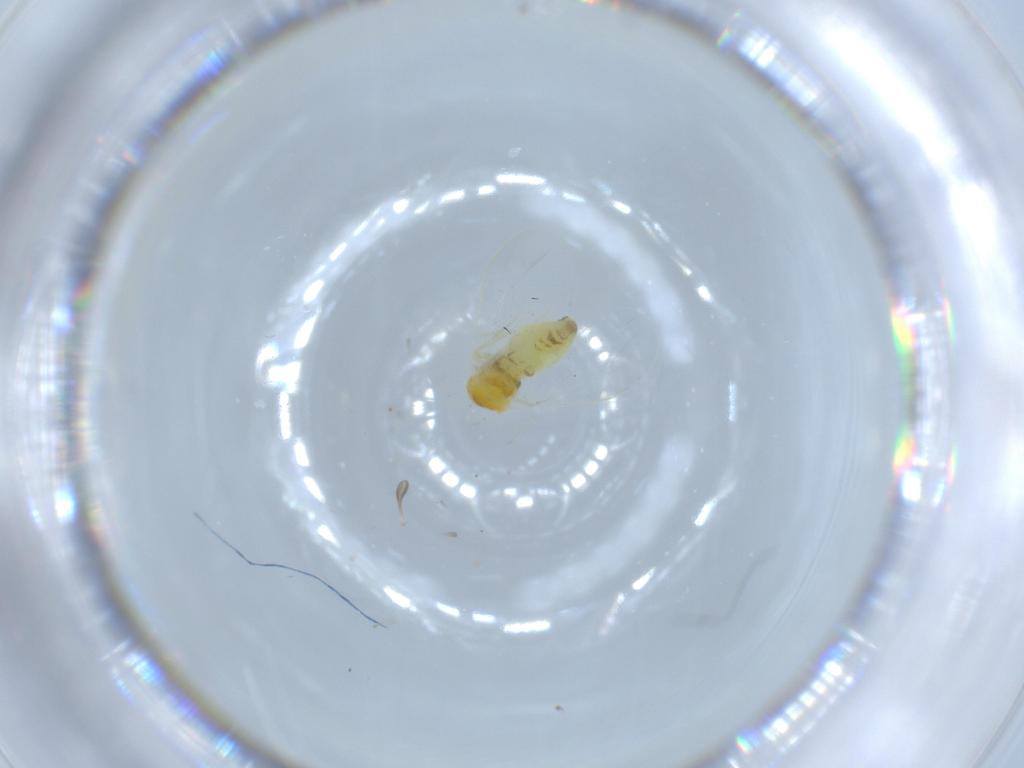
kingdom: Animalia
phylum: Arthropoda
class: Insecta
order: Hemiptera
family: Aleyrodidae
